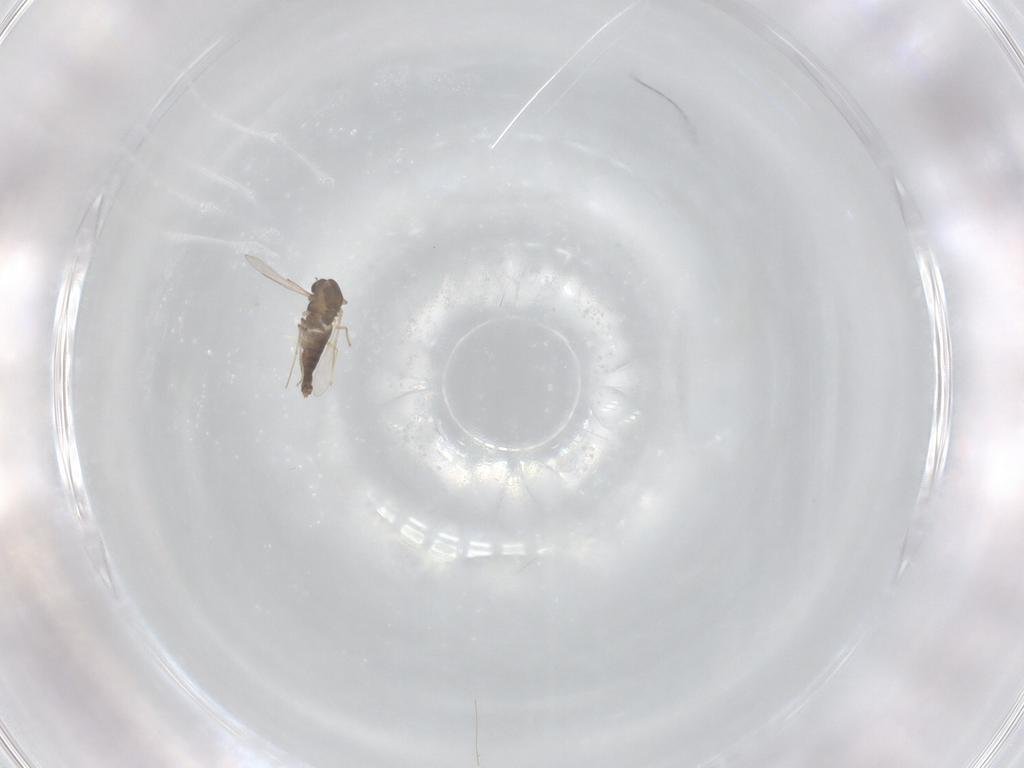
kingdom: Animalia
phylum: Arthropoda
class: Insecta
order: Diptera
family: Chironomidae
